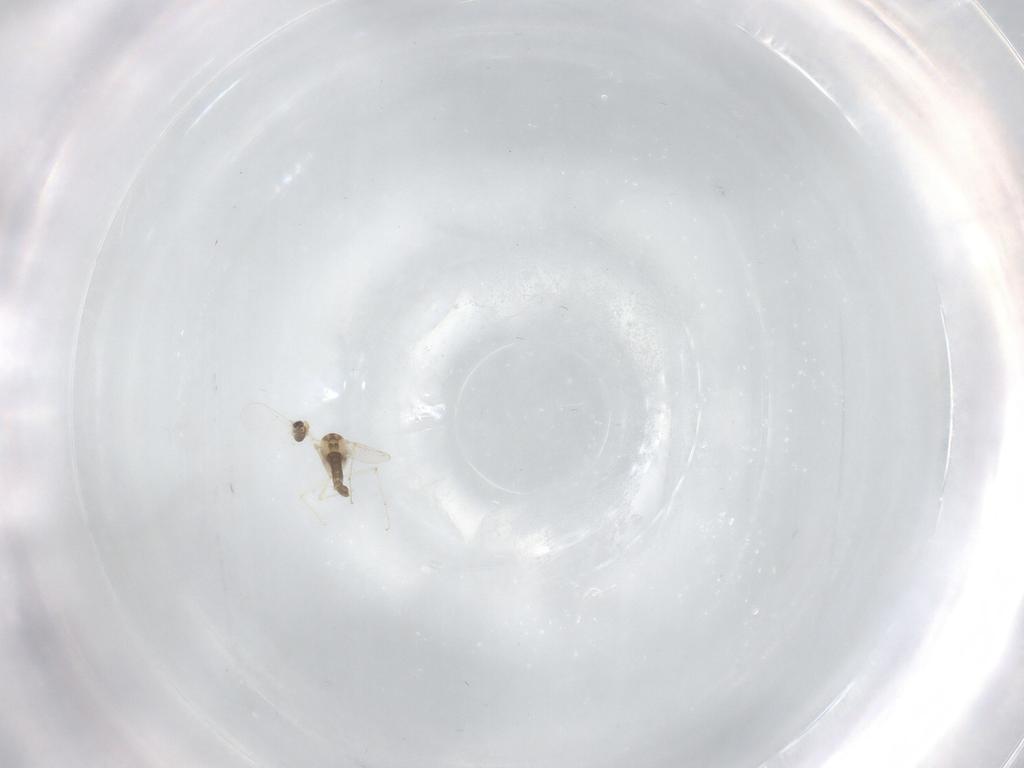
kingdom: Animalia
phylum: Arthropoda
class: Insecta
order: Diptera
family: Chironomidae
